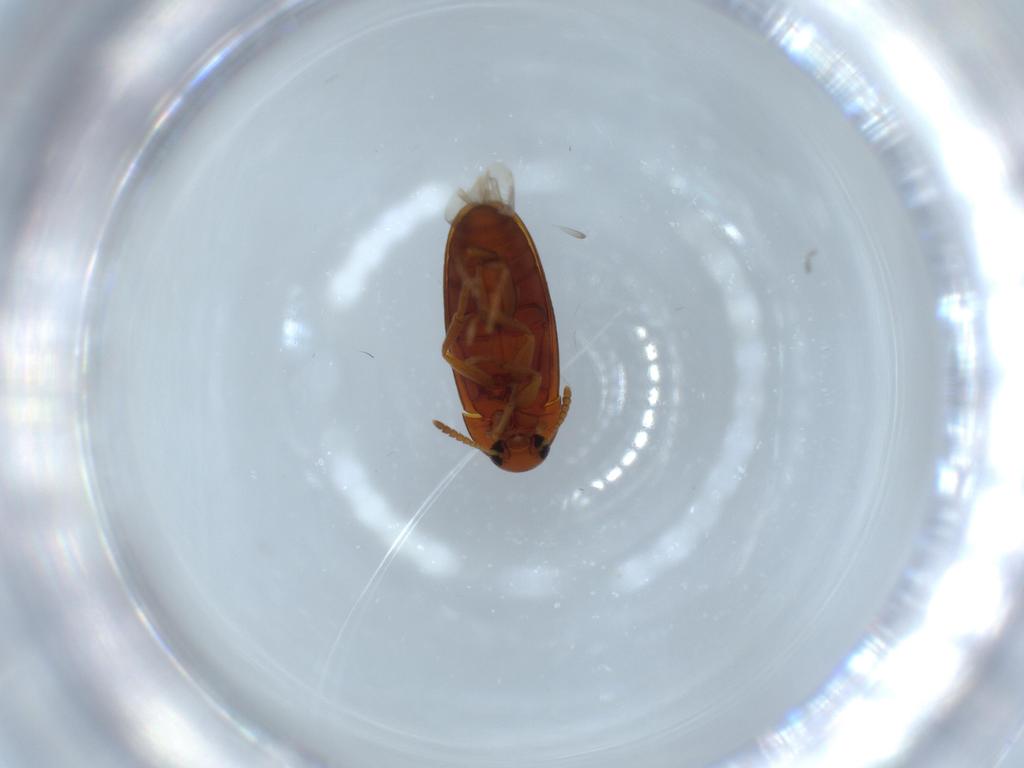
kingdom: Animalia
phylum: Arthropoda
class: Insecta
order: Coleoptera
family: Scraptiidae
